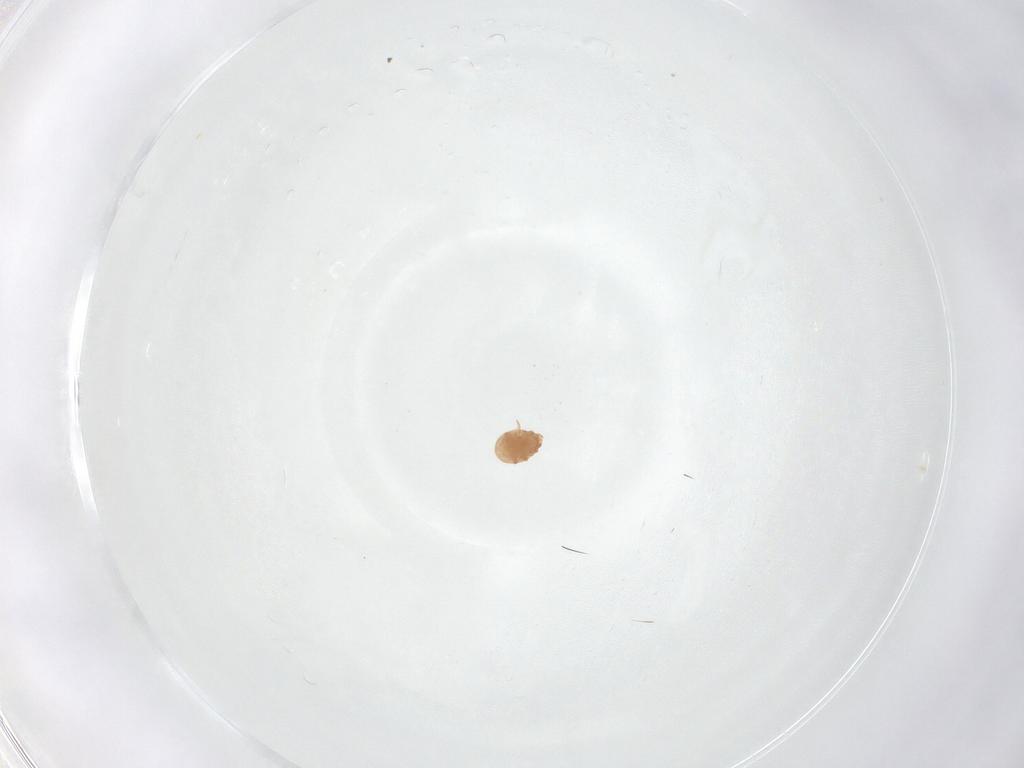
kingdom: Animalia
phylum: Arthropoda
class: Arachnida
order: Mesostigmata
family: Trematuridae
